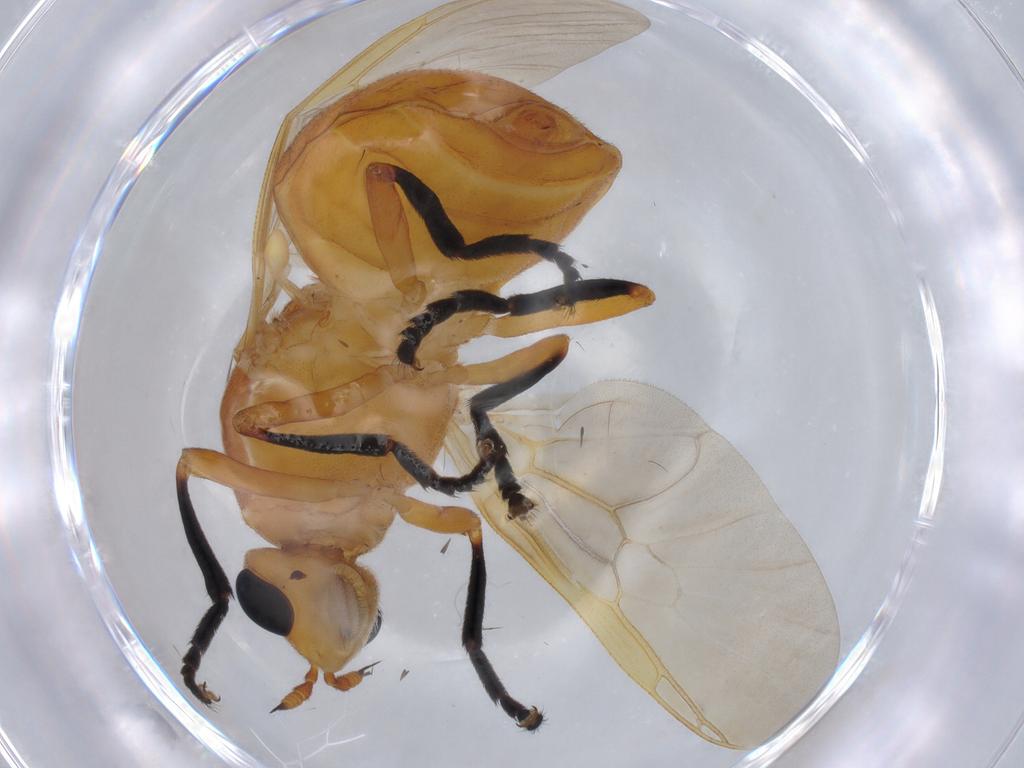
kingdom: Animalia
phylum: Arthropoda
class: Insecta
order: Diptera
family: Stratiomyidae
